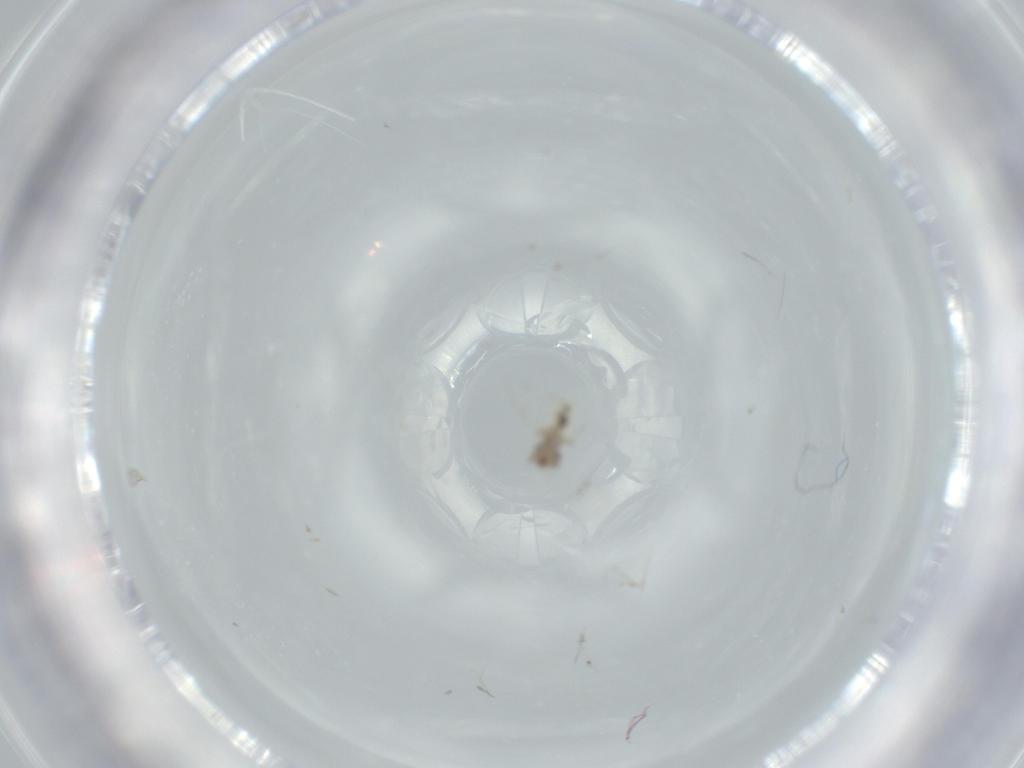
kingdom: Animalia
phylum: Arthropoda
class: Insecta
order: Psocodea
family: Lepidopsocidae
